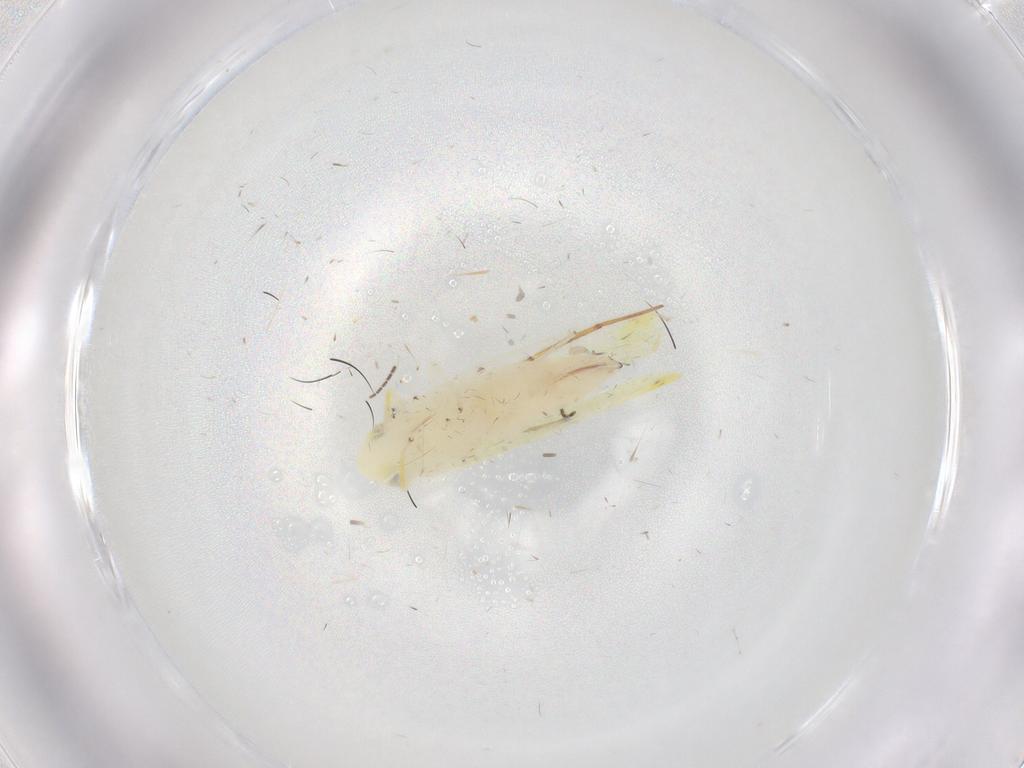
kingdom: Animalia
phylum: Arthropoda
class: Insecta
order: Hemiptera
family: Cicadellidae
